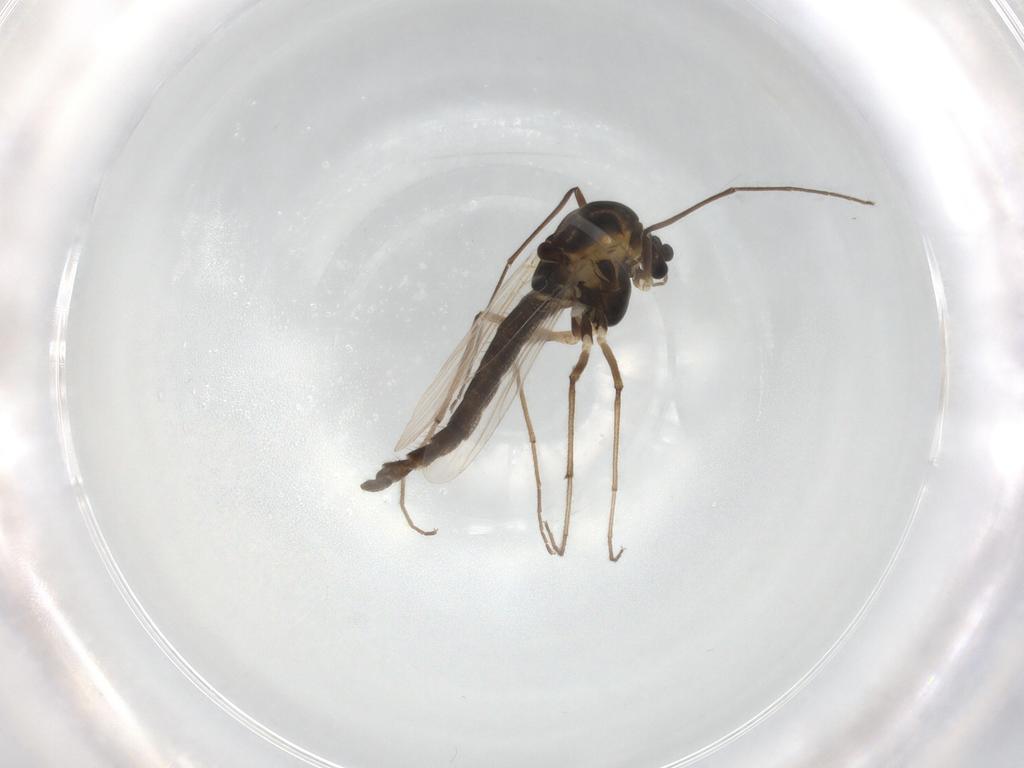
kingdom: Animalia
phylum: Arthropoda
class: Insecta
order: Diptera
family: Chironomidae
